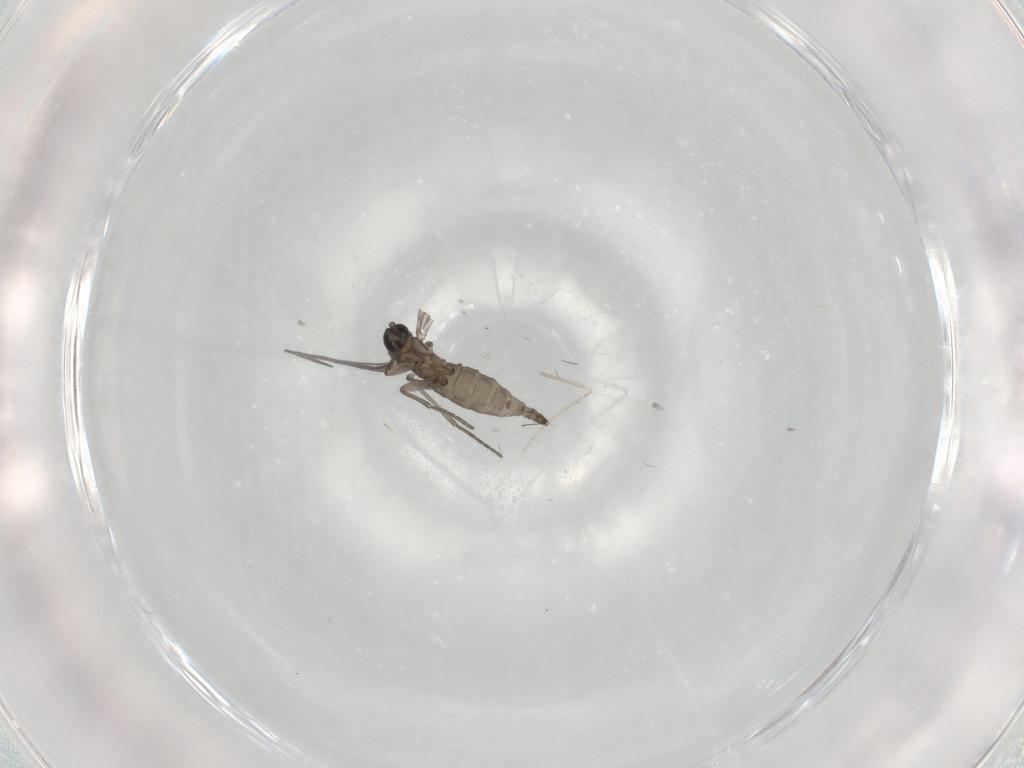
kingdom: Animalia
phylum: Arthropoda
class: Insecta
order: Diptera
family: Sciaridae
